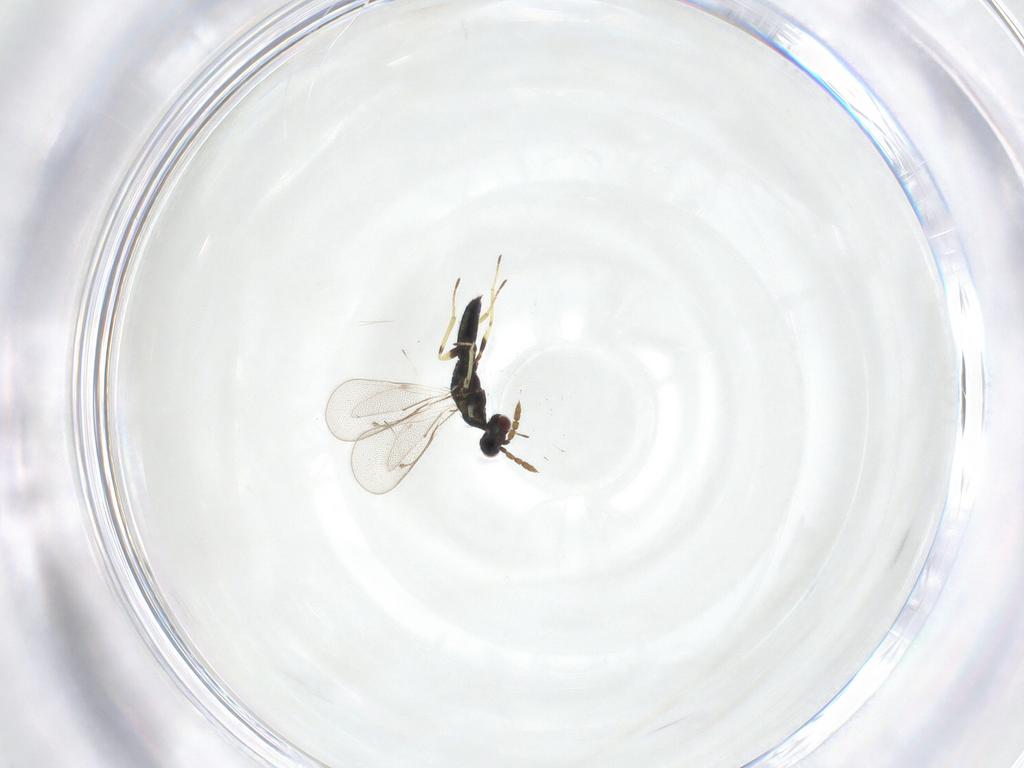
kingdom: Animalia
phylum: Arthropoda
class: Insecta
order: Hymenoptera
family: Eulophidae
